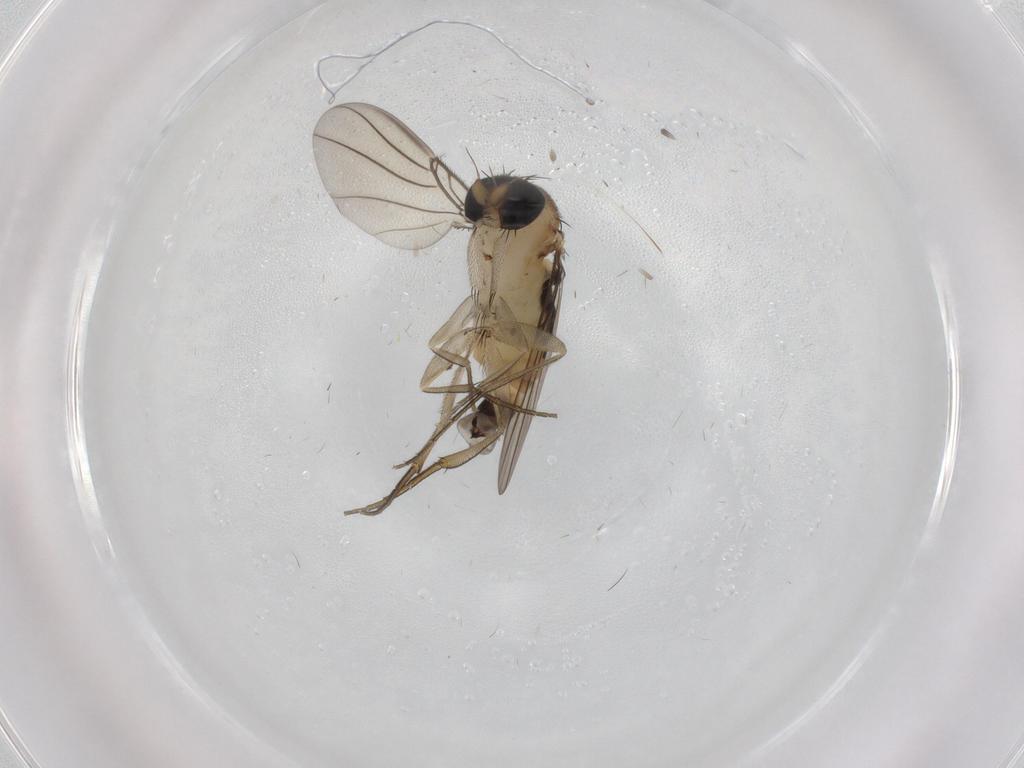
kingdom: Animalia
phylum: Arthropoda
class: Insecta
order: Diptera
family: Phoridae
